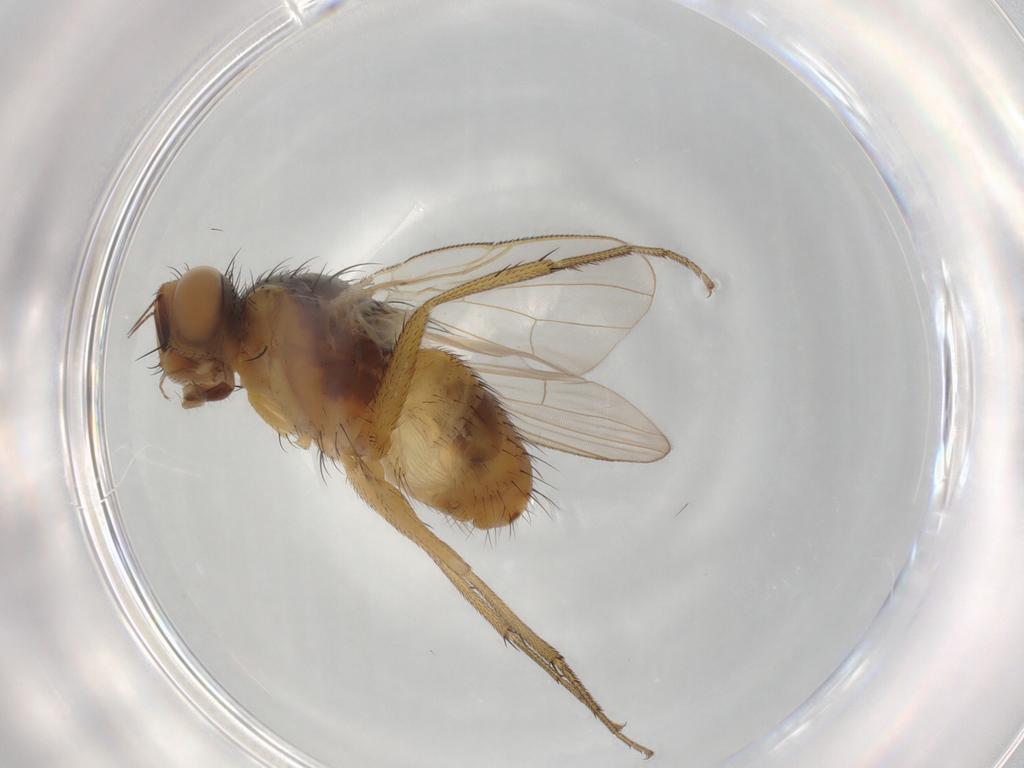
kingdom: Animalia
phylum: Arthropoda
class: Insecta
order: Diptera
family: Muscidae
